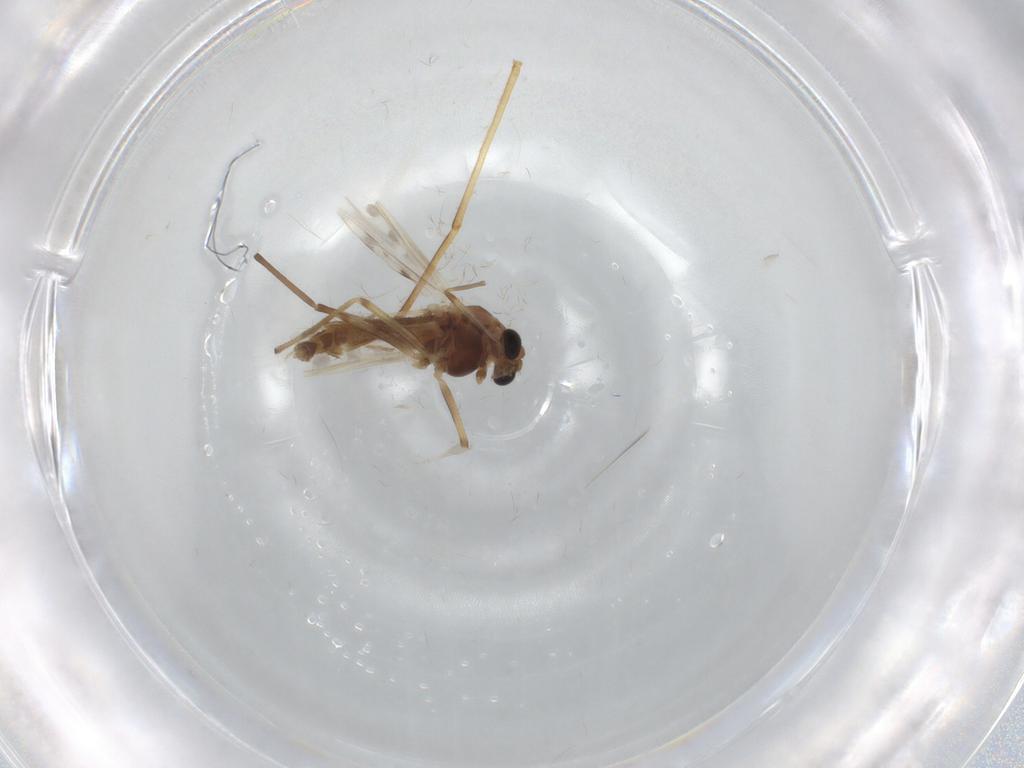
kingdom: Animalia
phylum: Arthropoda
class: Insecta
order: Diptera
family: Chironomidae
